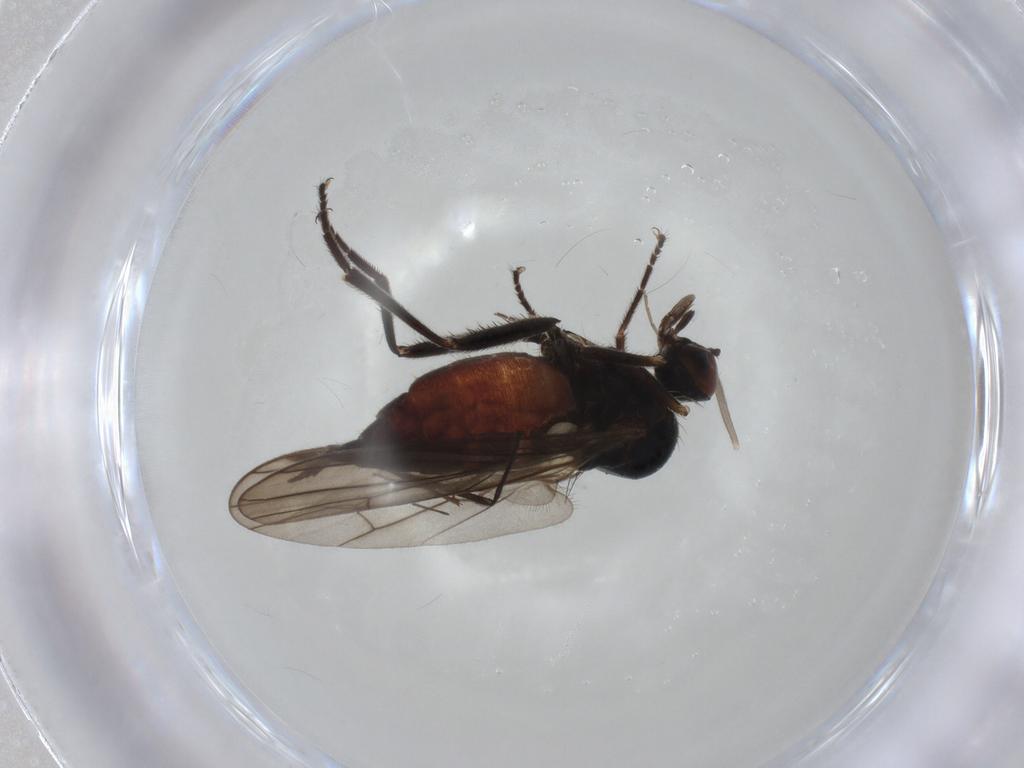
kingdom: Animalia
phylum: Arthropoda
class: Insecta
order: Diptera
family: Hybotidae
